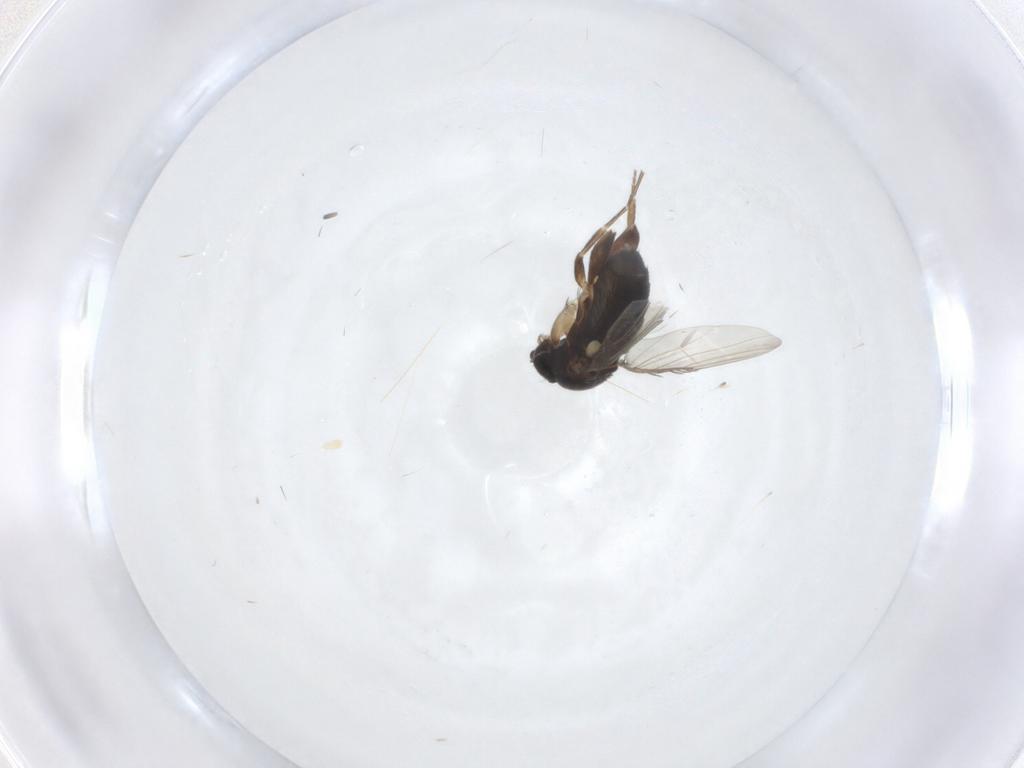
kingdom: Animalia
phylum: Arthropoda
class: Insecta
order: Diptera
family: Phoridae
